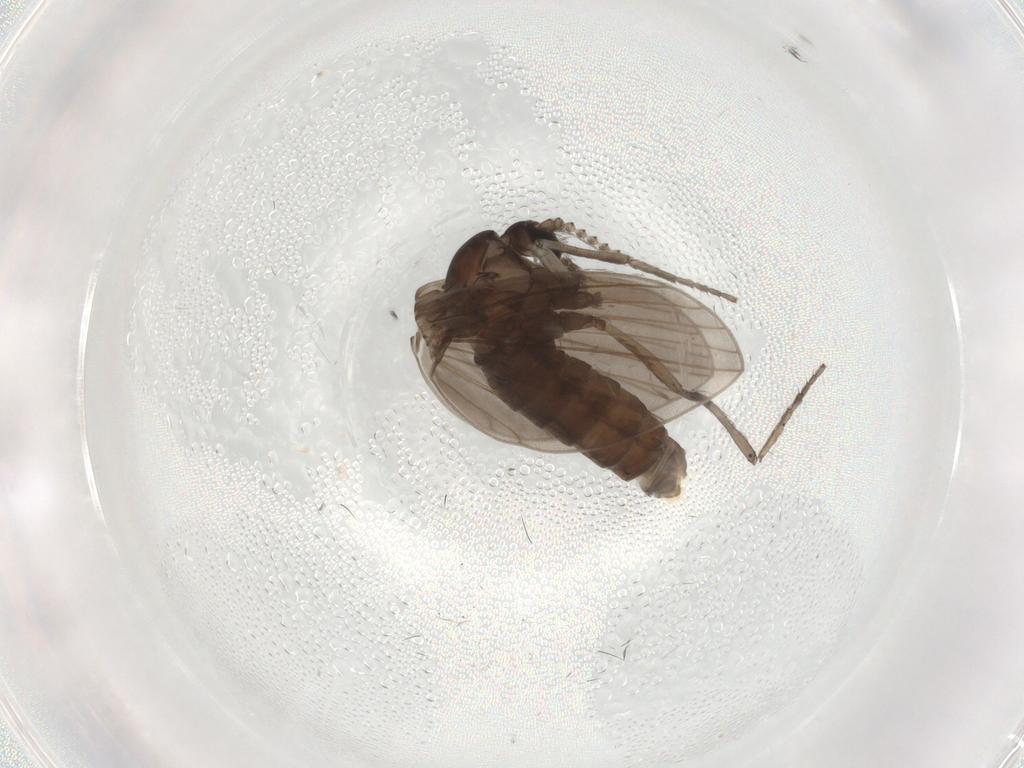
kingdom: Animalia
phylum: Arthropoda
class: Insecta
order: Diptera
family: Psychodidae
